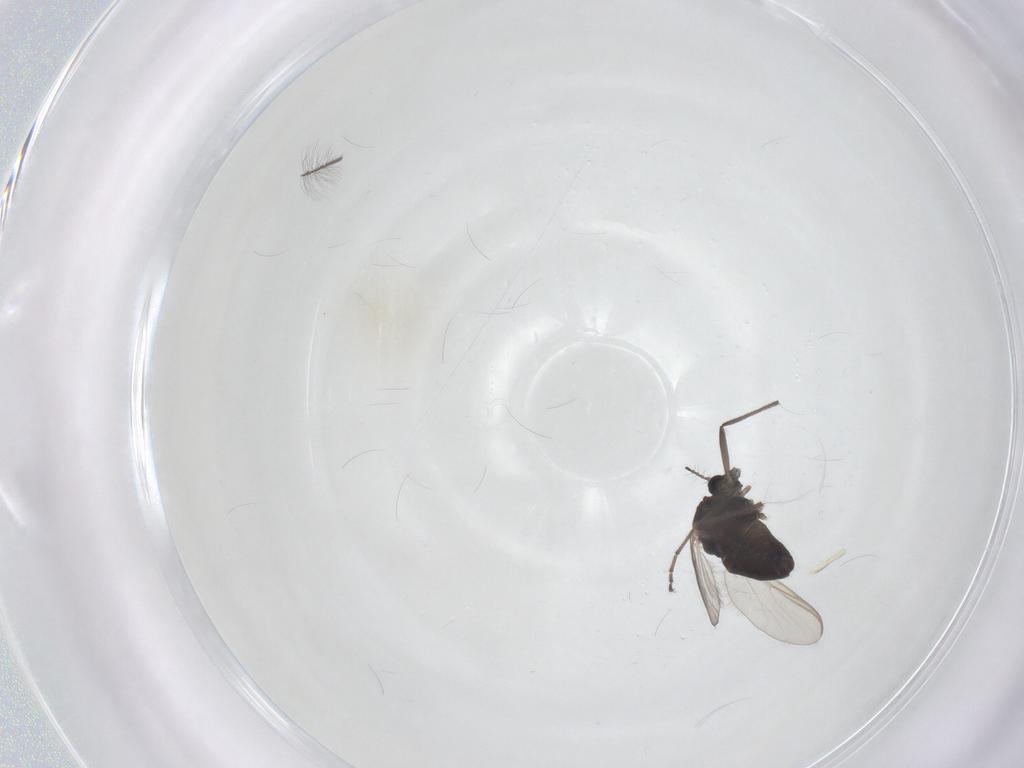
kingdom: Animalia
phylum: Arthropoda
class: Insecta
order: Diptera
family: Chironomidae
